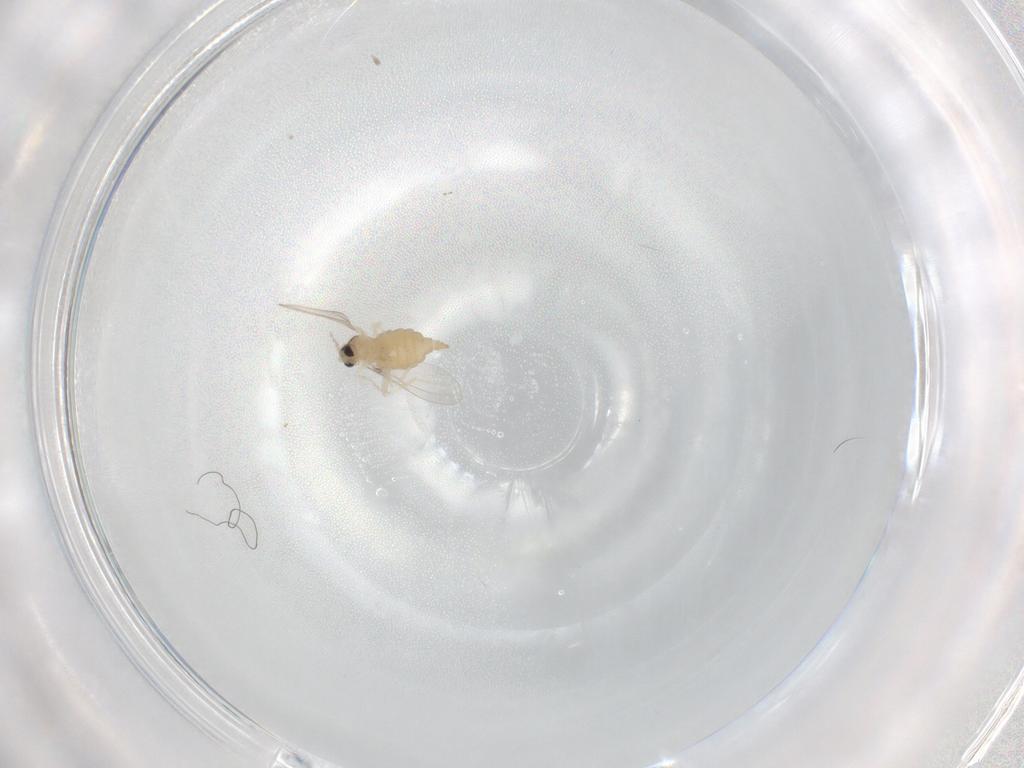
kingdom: Animalia
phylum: Arthropoda
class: Insecta
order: Diptera
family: Cecidomyiidae
